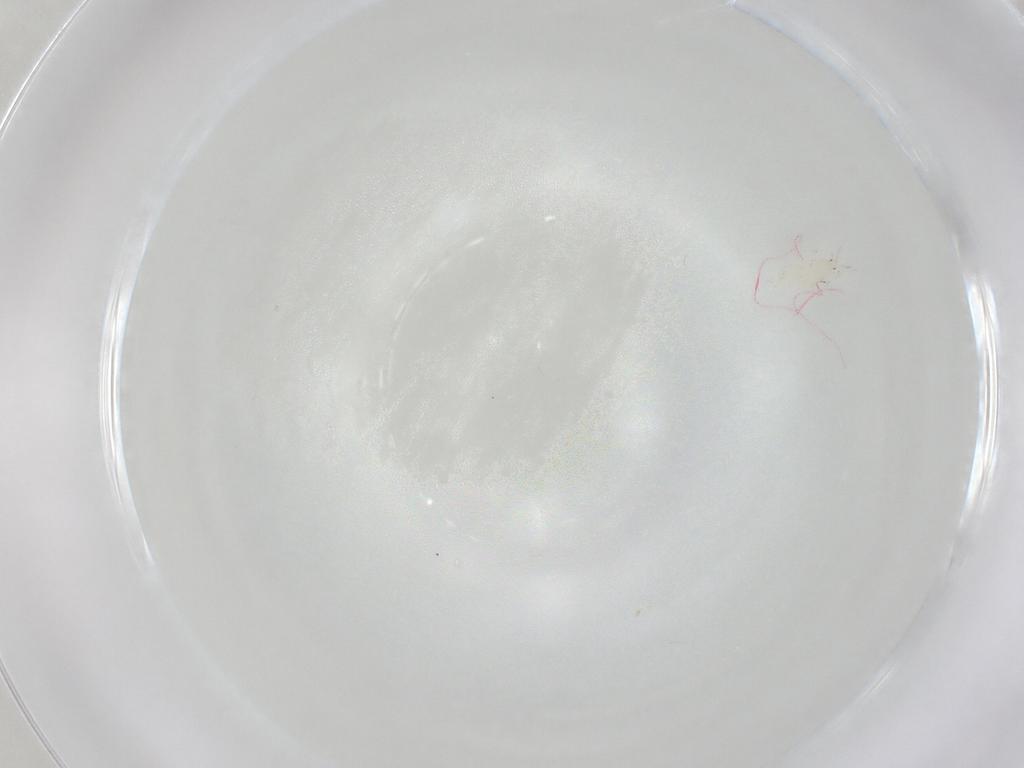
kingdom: Animalia
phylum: Arthropoda
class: Insecta
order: Diptera
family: Chironomidae
